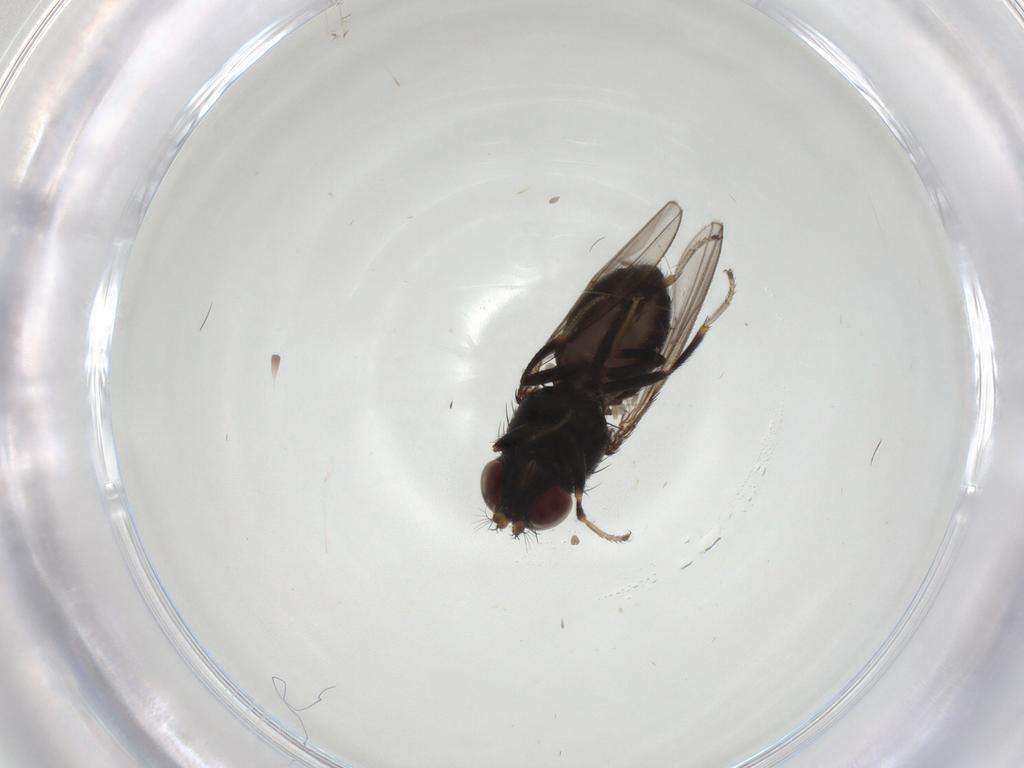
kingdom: Animalia
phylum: Arthropoda
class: Insecta
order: Diptera
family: Ephydridae
